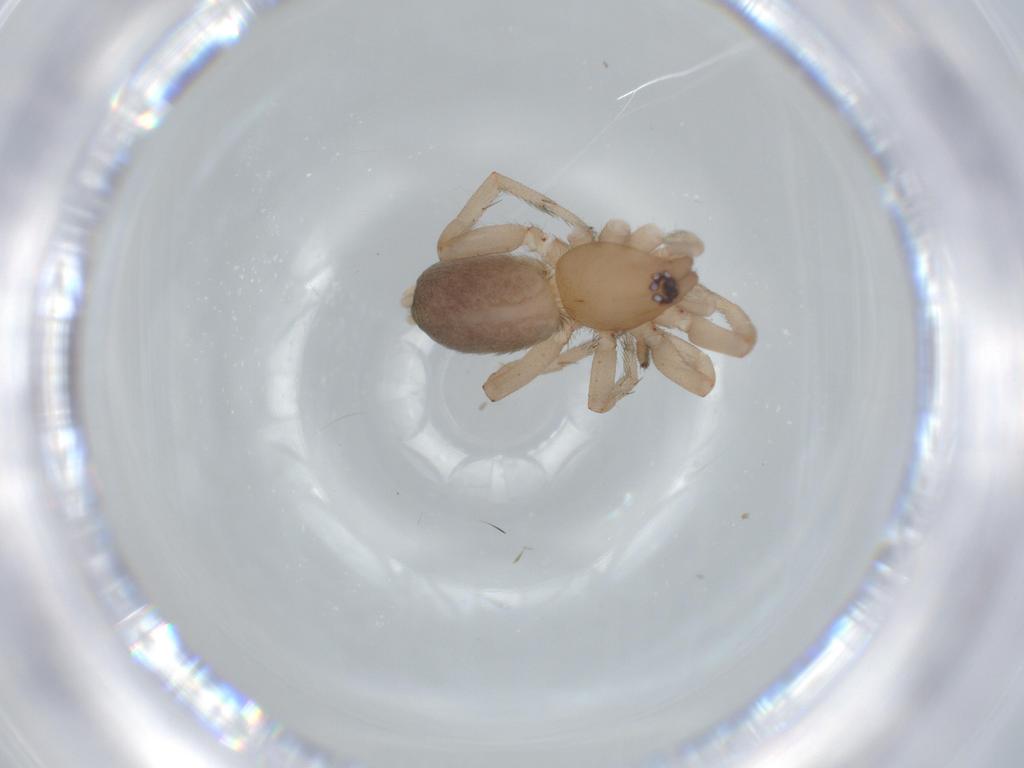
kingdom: Animalia
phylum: Arthropoda
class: Arachnida
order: Araneae
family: Gnaphosidae
